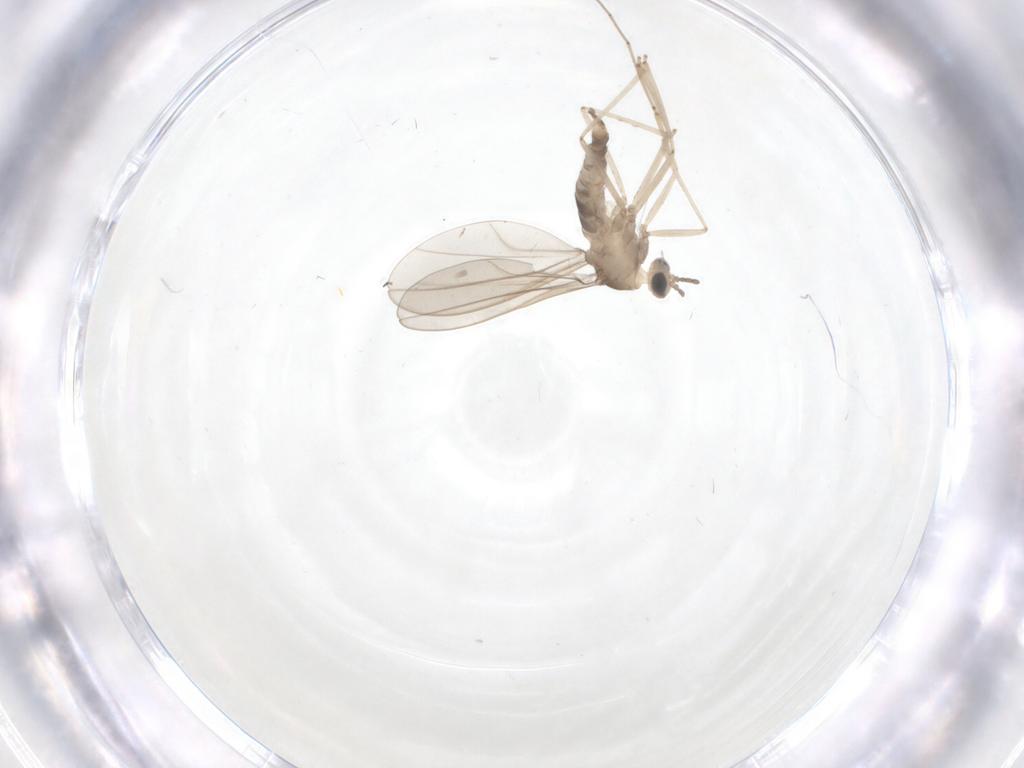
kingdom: Animalia
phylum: Arthropoda
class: Insecta
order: Diptera
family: Cecidomyiidae
